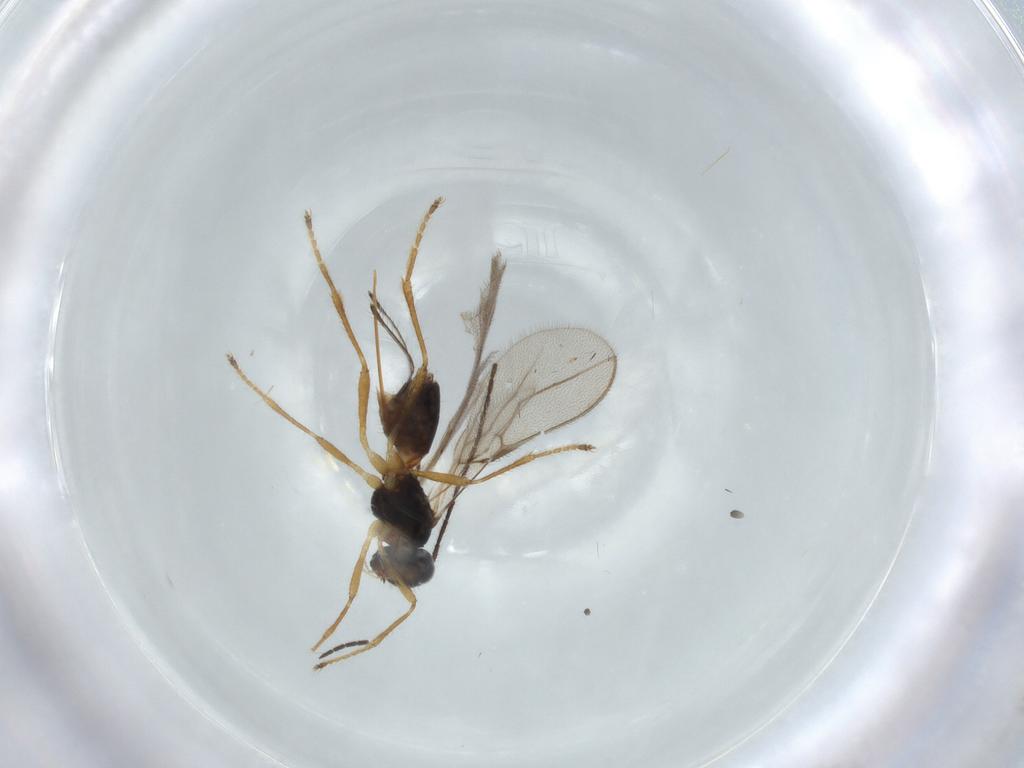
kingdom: Animalia
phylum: Arthropoda
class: Insecta
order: Hymenoptera
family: Braconidae
